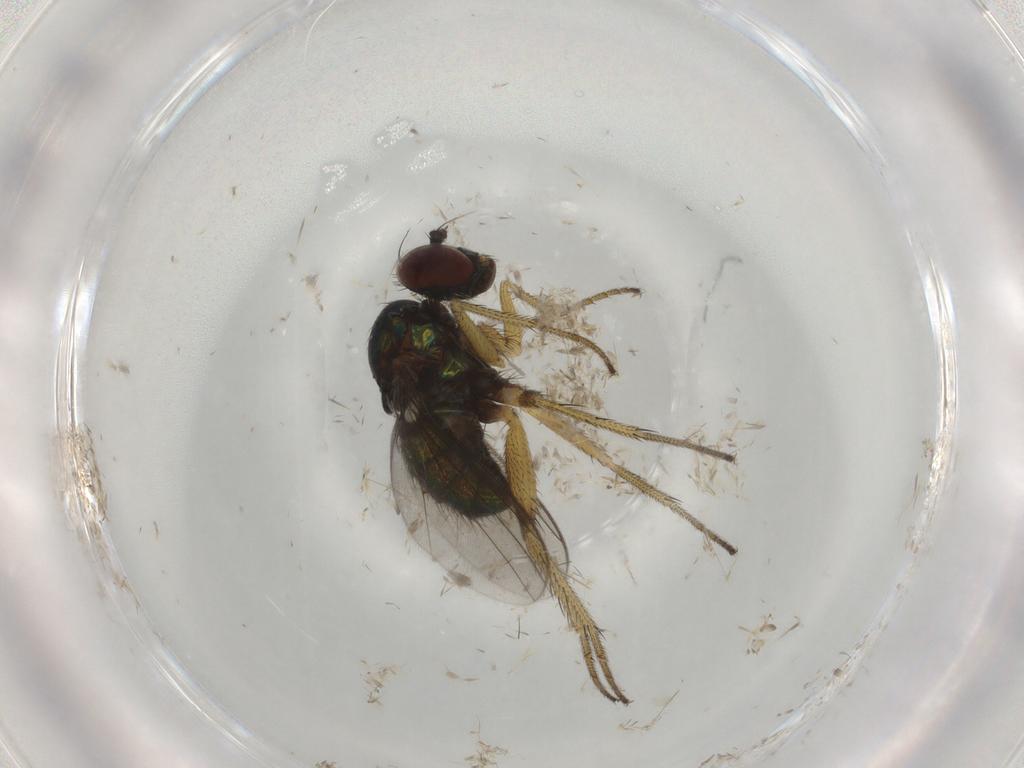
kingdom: Animalia
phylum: Arthropoda
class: Insecta
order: Diptera
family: Dolichopodidae
